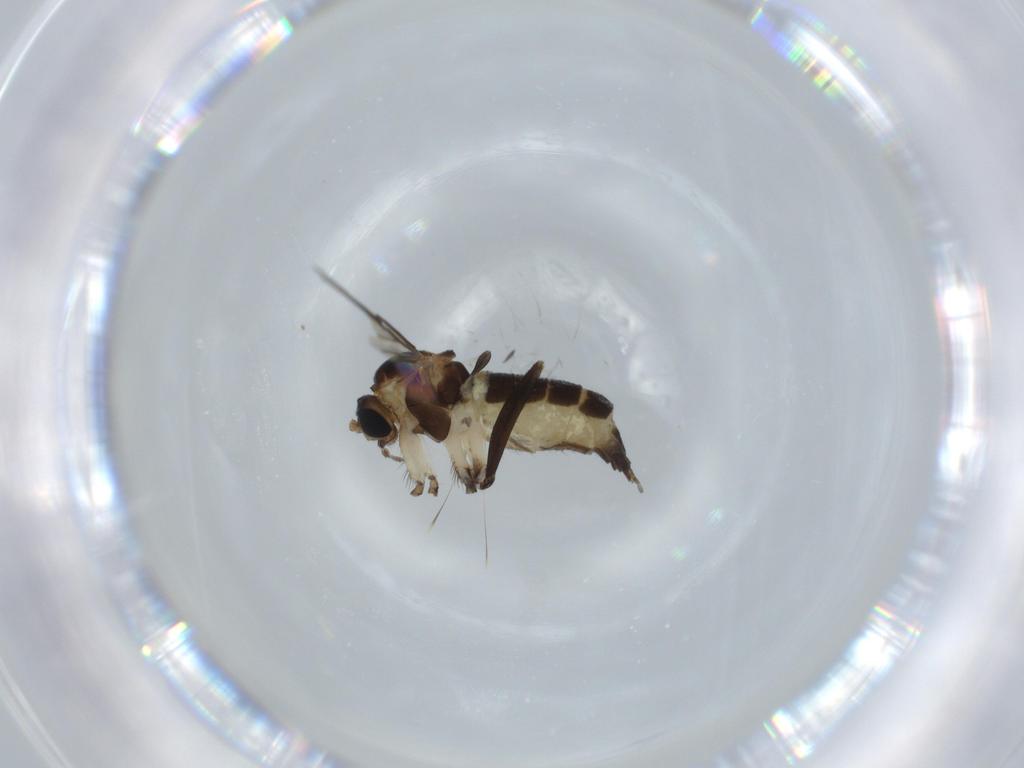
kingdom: Animalia
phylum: Arthropoda
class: Insecta
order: Diptera
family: Sciaridae
